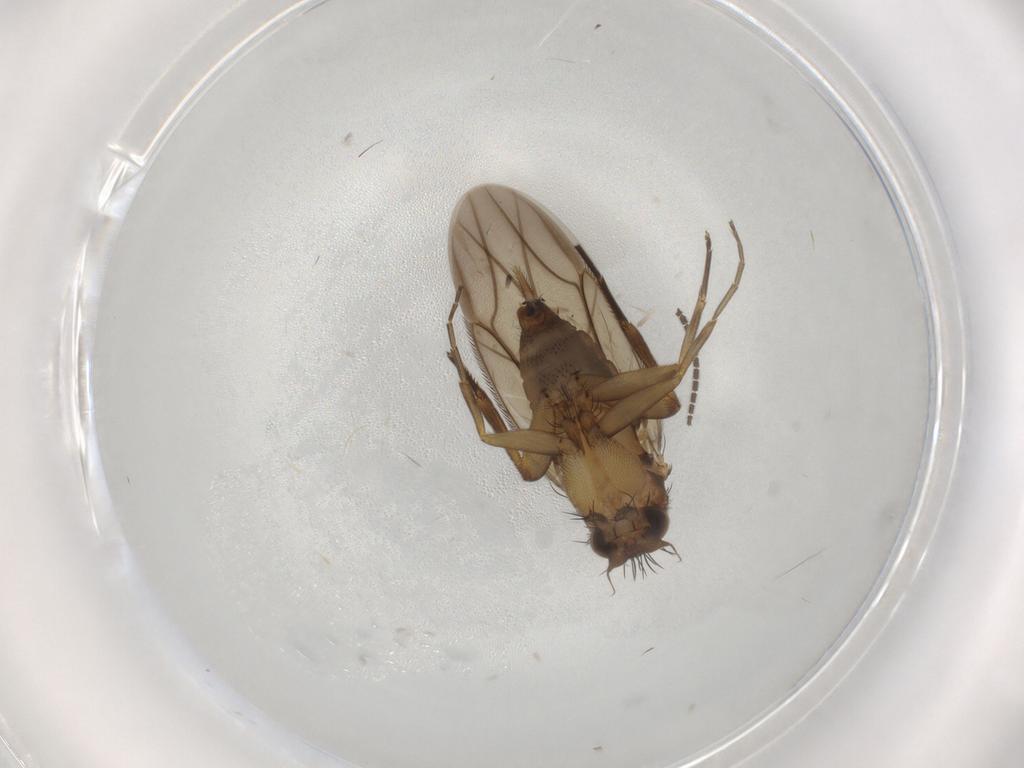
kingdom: Animalia
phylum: Arthropoda
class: Insecta
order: Diptera
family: Phoridae
